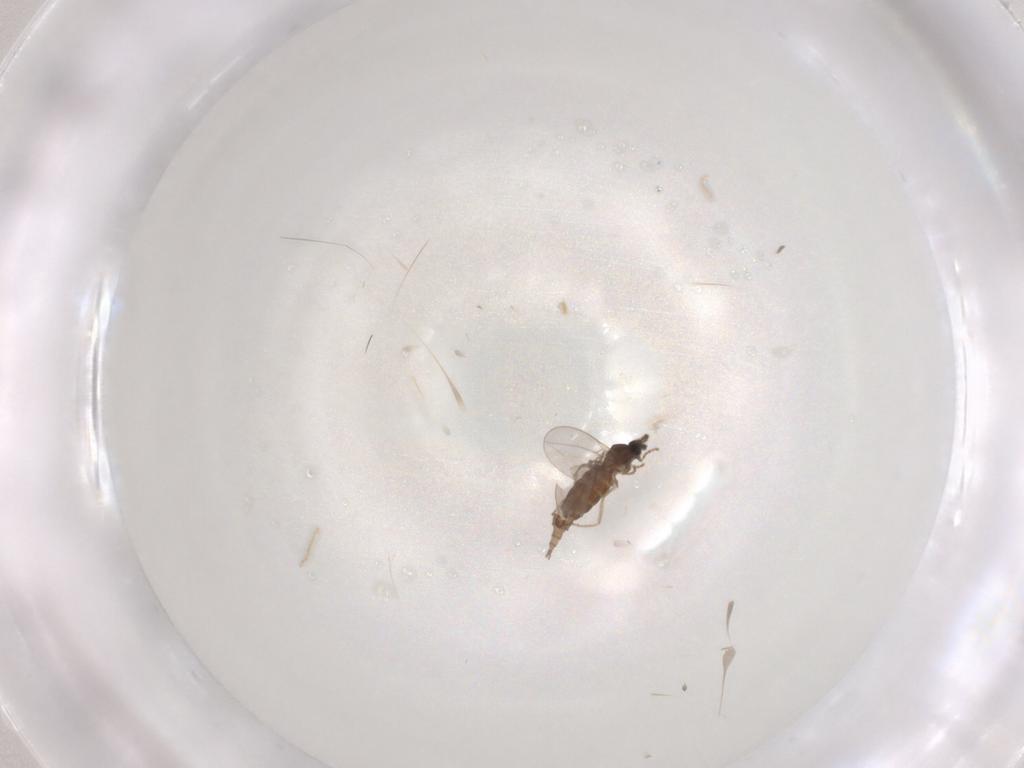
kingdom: Animalia
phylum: Arthropoda
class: Insecta
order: Diptera
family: Cecidomyiidae
